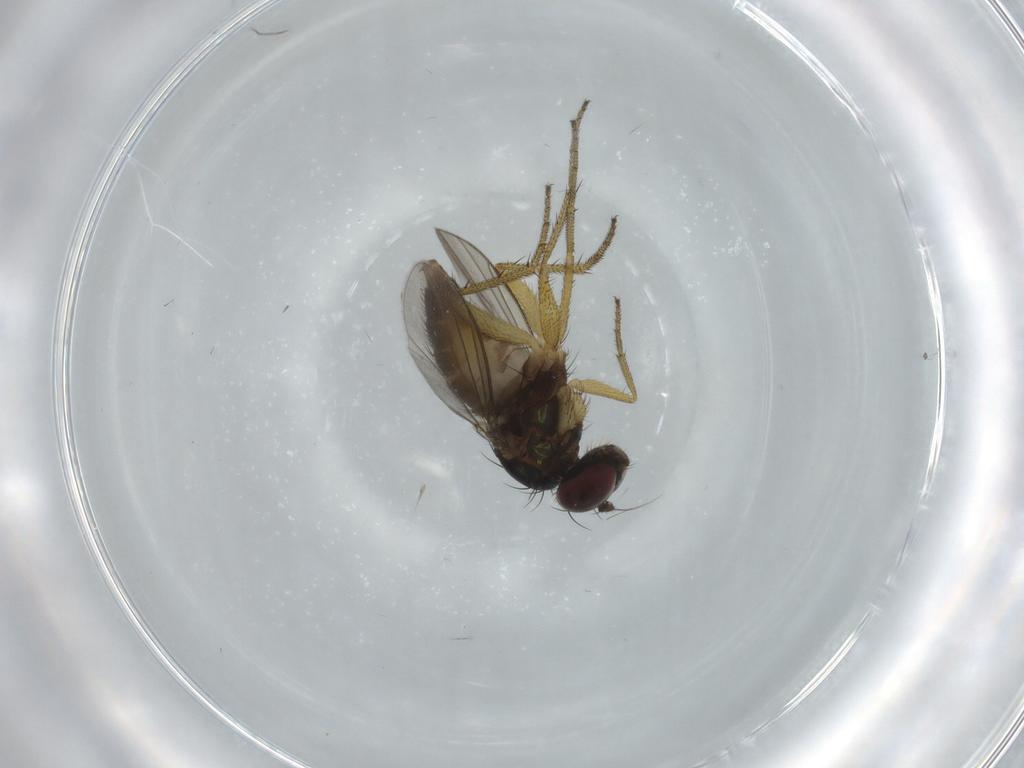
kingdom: Animalia
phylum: Arthropoda
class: Insecta
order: Diptera
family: Dolichopodidae
